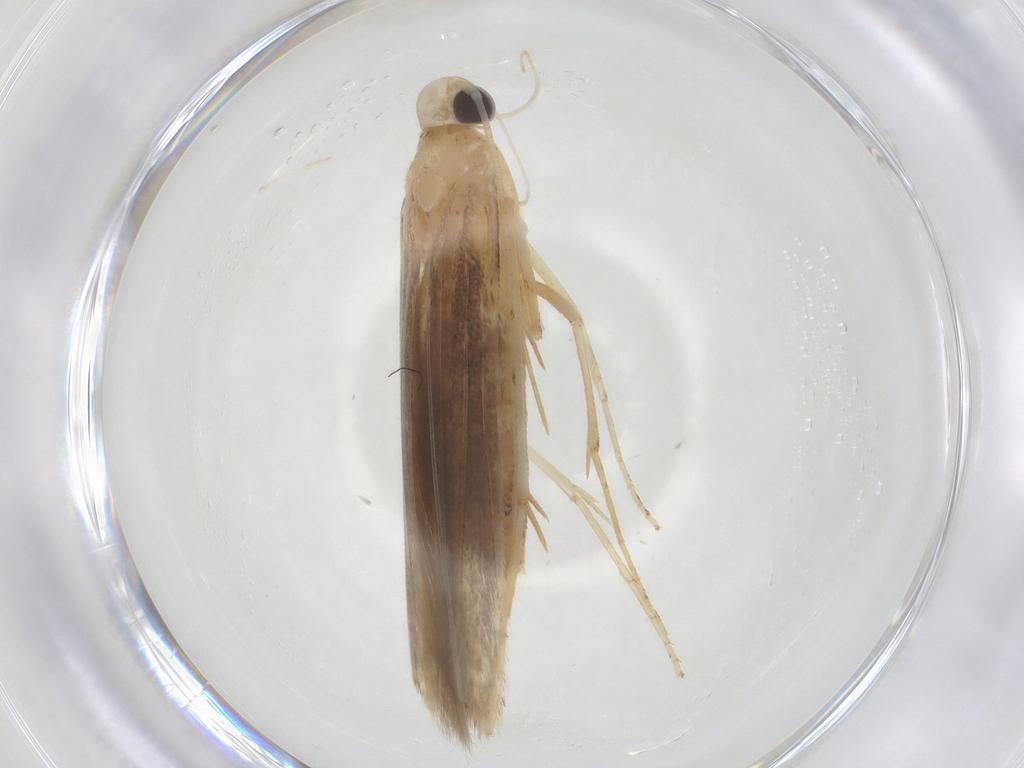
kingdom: Animalia
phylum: Arthropoda
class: Insecta
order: Lepidoptera
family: Batrachedridae
